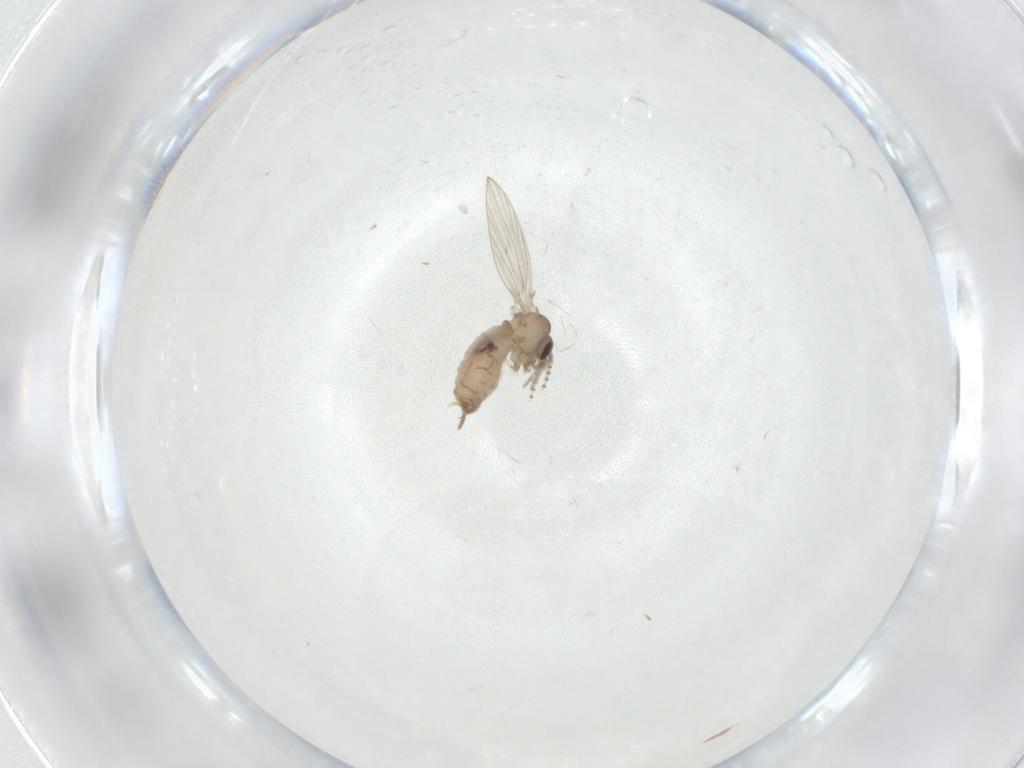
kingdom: Animalia
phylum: Arthropoda
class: Insecta
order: Diptera
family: Psychodidae
